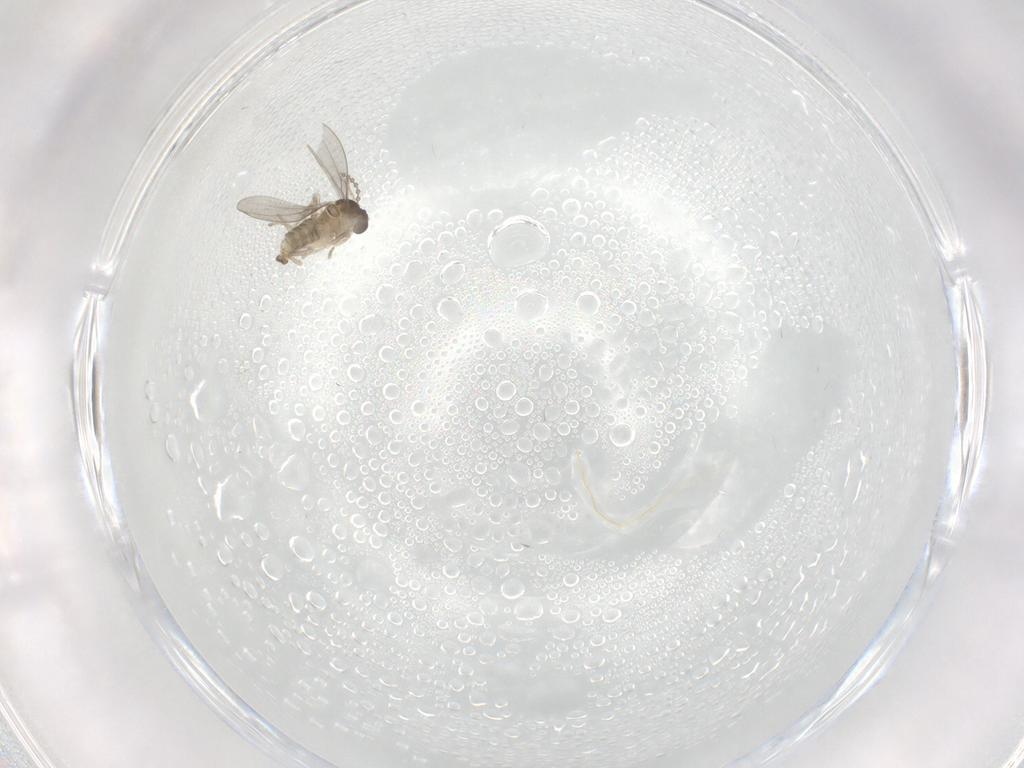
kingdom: Animalia
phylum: Arthropoda
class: Insecta
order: Diptera
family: Cecidomyiidae
